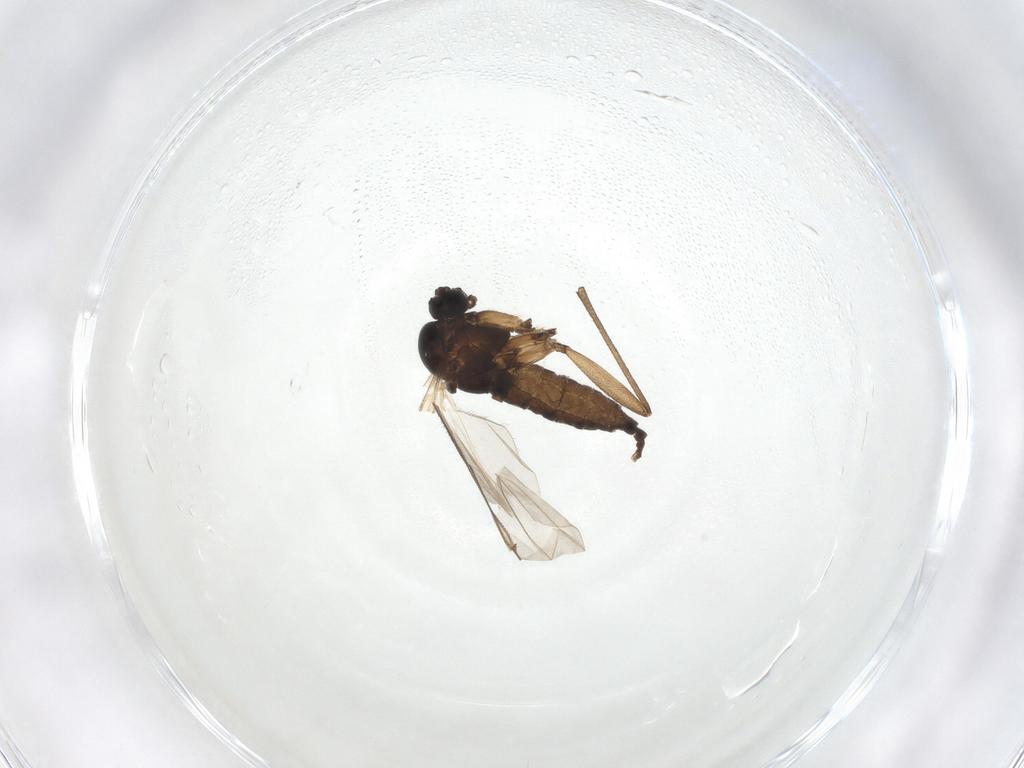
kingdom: Animalia
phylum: Arthropoda
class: Insecta
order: Diptera
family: Sciaridae
